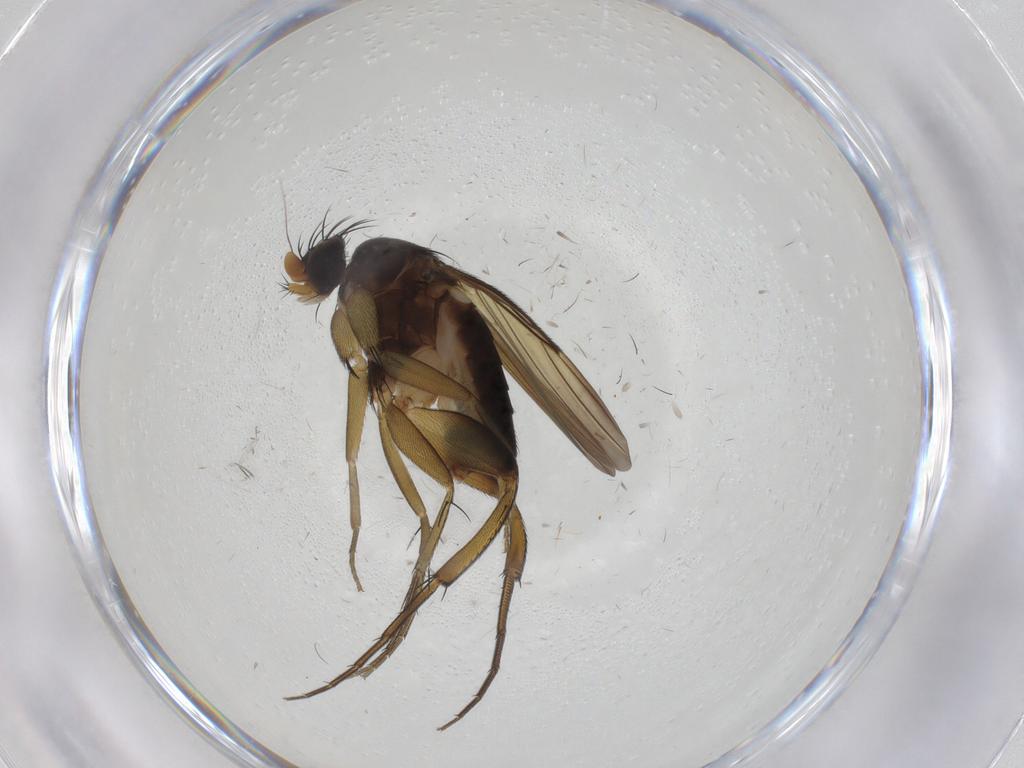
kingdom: Animalia
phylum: Arthropoda
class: Insecta
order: Diptera
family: Phoridae
